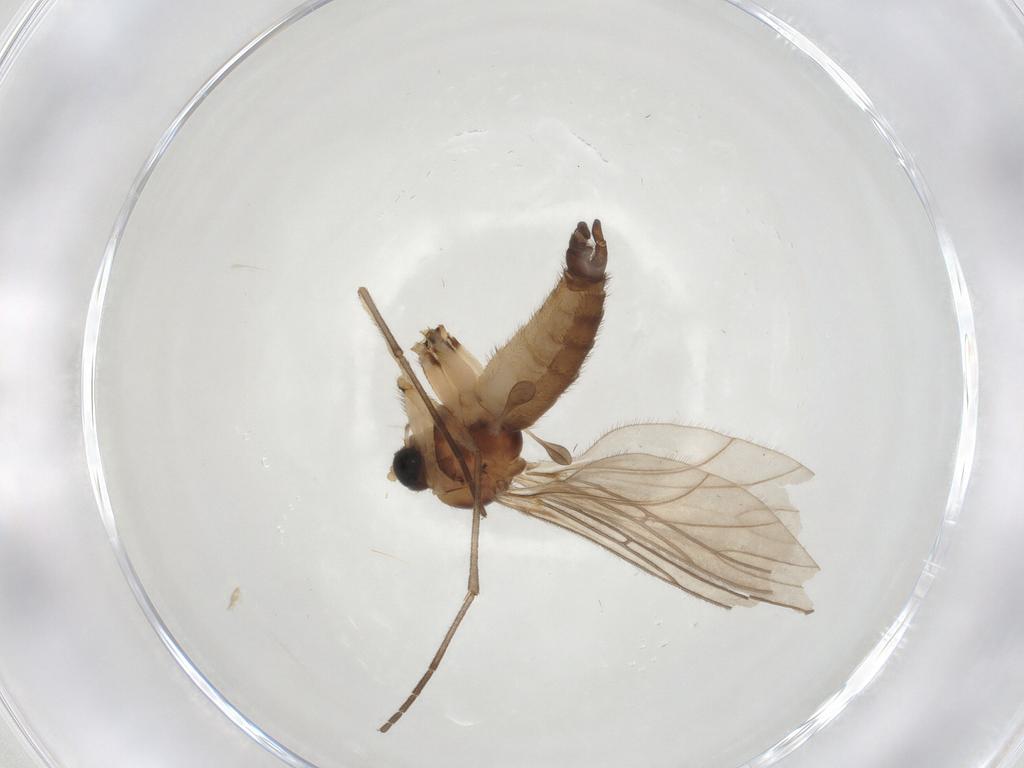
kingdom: Animalia
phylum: Arthropoda
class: Insecta
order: Diptera
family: Sciaridae
